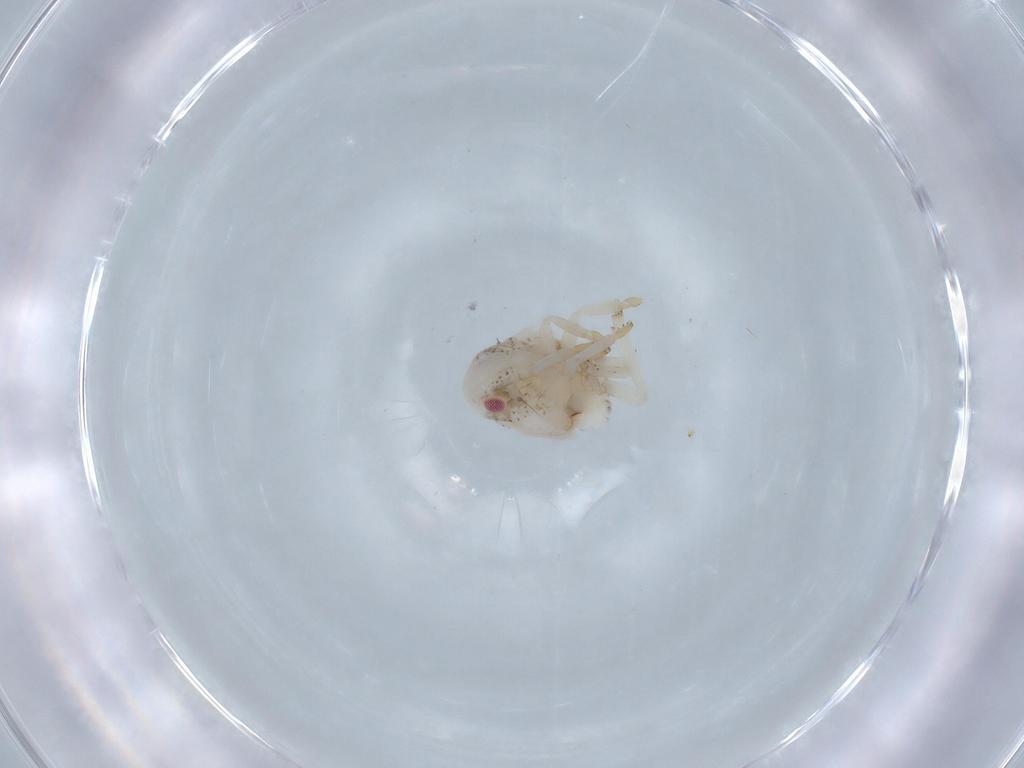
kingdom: Animalia
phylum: Arthropoda
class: Insecta
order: Hemiptera
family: Acanaloniidae
